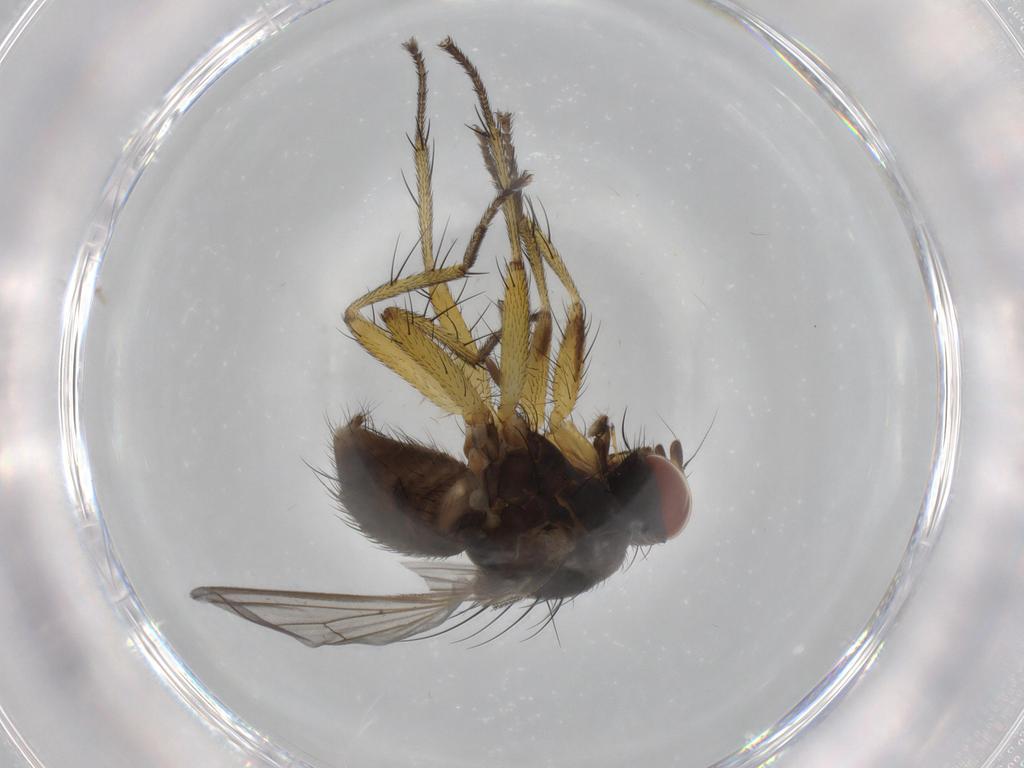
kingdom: Animalia
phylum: Arthropoda
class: Insecta
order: Diptera
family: Muscidae
